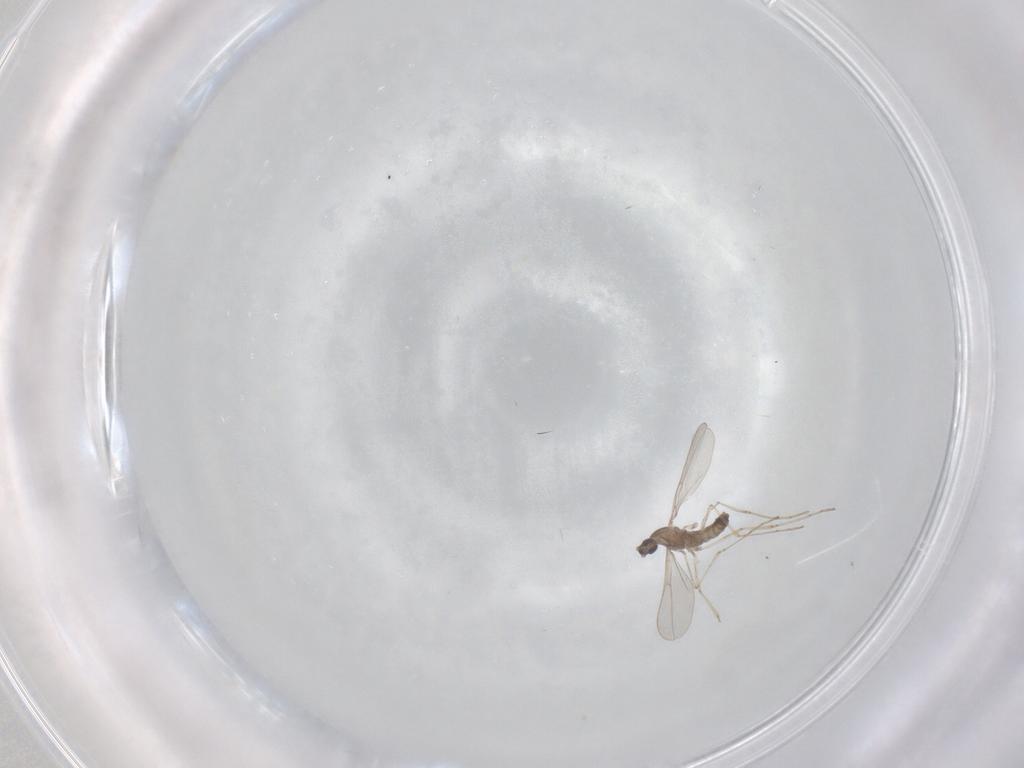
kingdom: Animalia
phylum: Arthropoda
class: Insecta
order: Diptera
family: Cecidomyiidae
